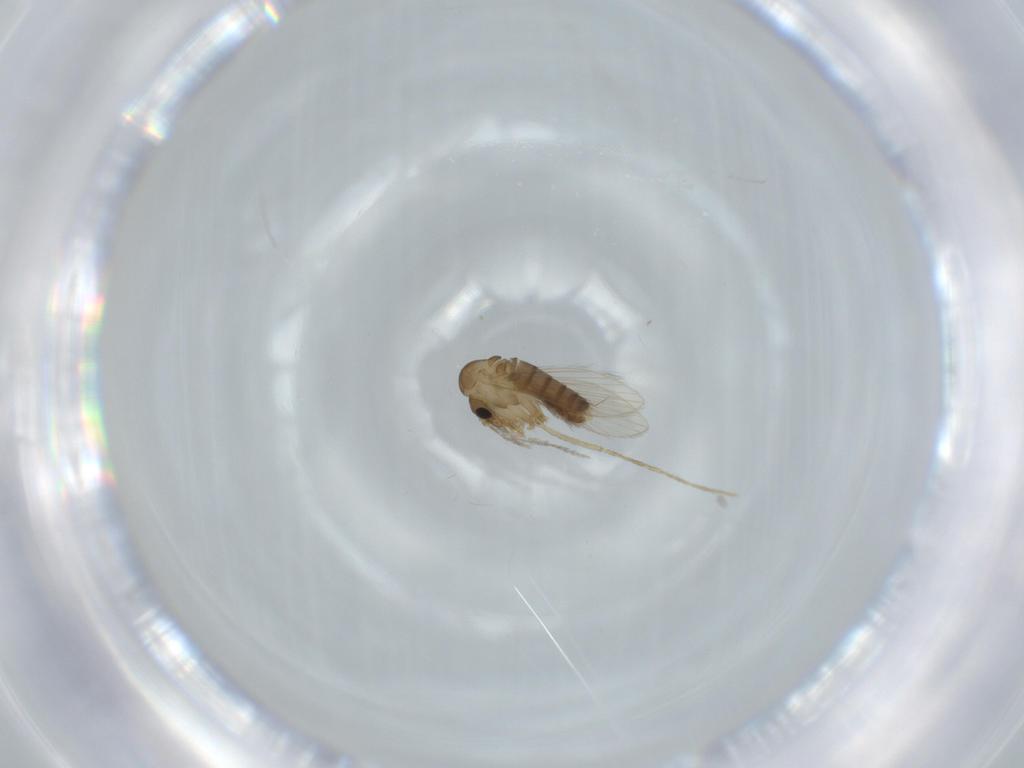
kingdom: Animalia
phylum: Arthropoda
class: Insecta
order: Diptera
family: Psychodidae
